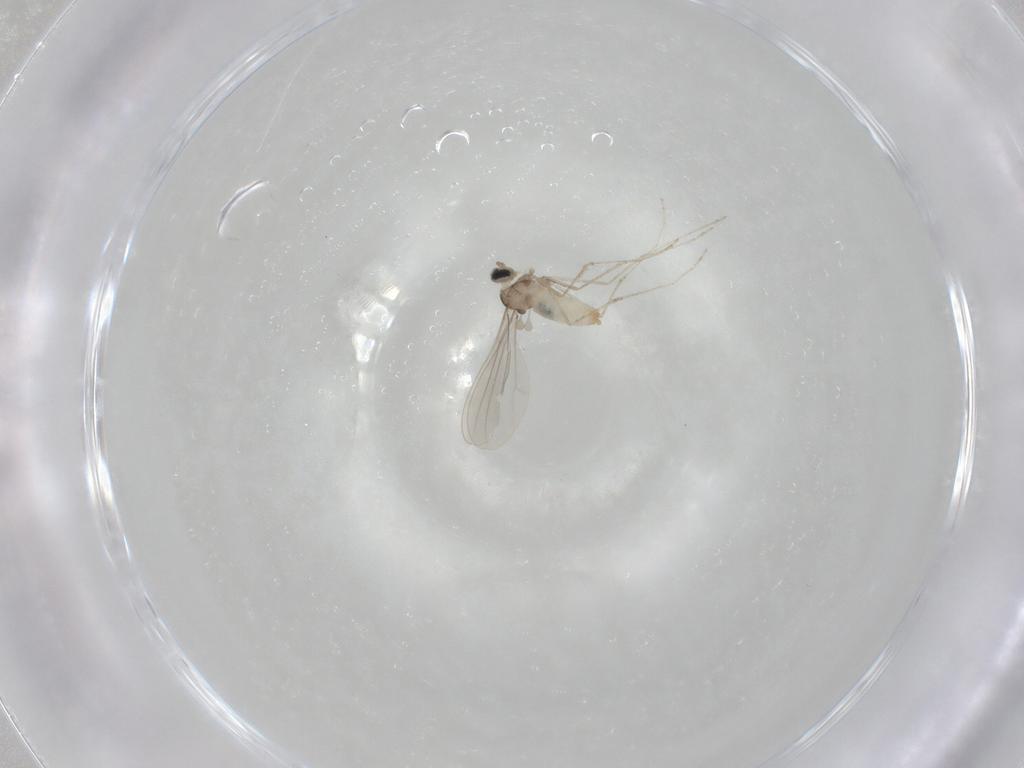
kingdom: Animalia
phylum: Arthropoda
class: Insecta
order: Diptera
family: Cecidomyiidae
